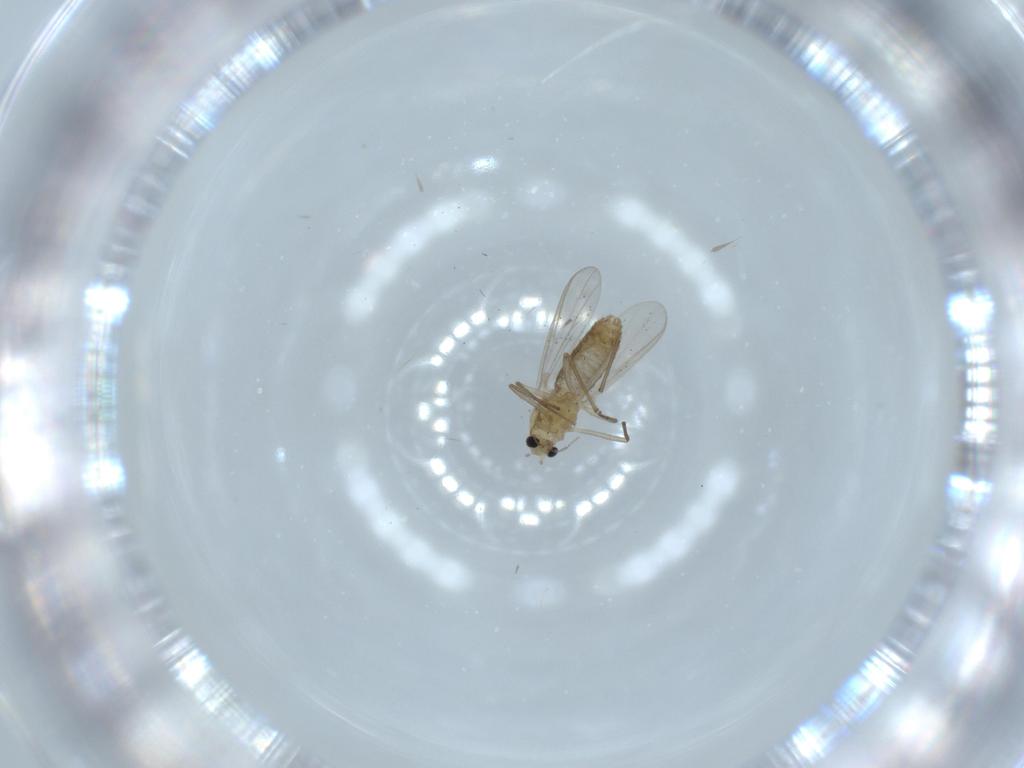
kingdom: Animalia
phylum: Arthropoda
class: Insecta
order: Diptera
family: Chironomidae
